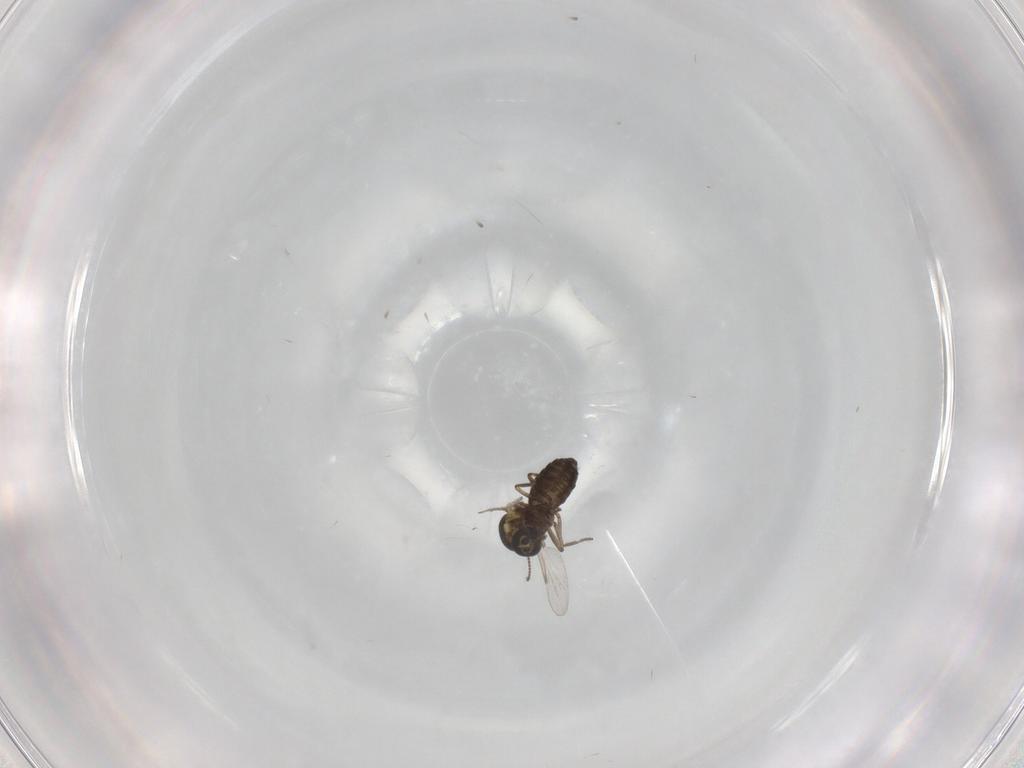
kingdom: Animalia
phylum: Arthropoda
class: Insecta
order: Diptera
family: Ceratopogonidae
